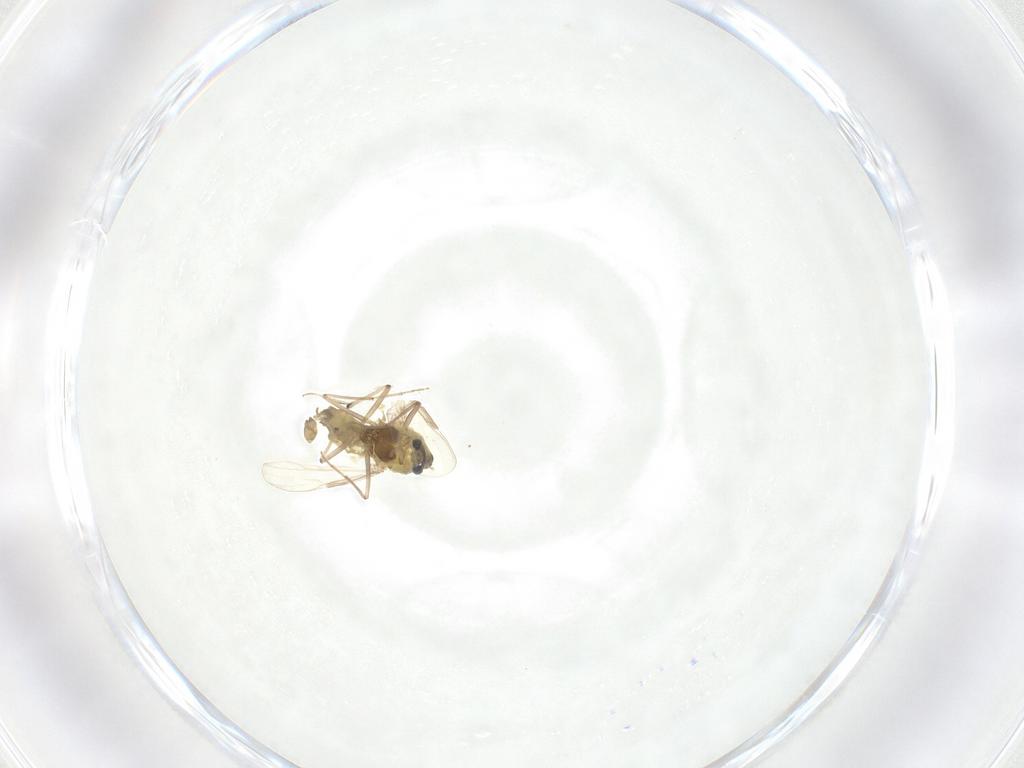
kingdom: Animalia
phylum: Arthropoda
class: Insecta
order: Diptera
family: Chironomidae
